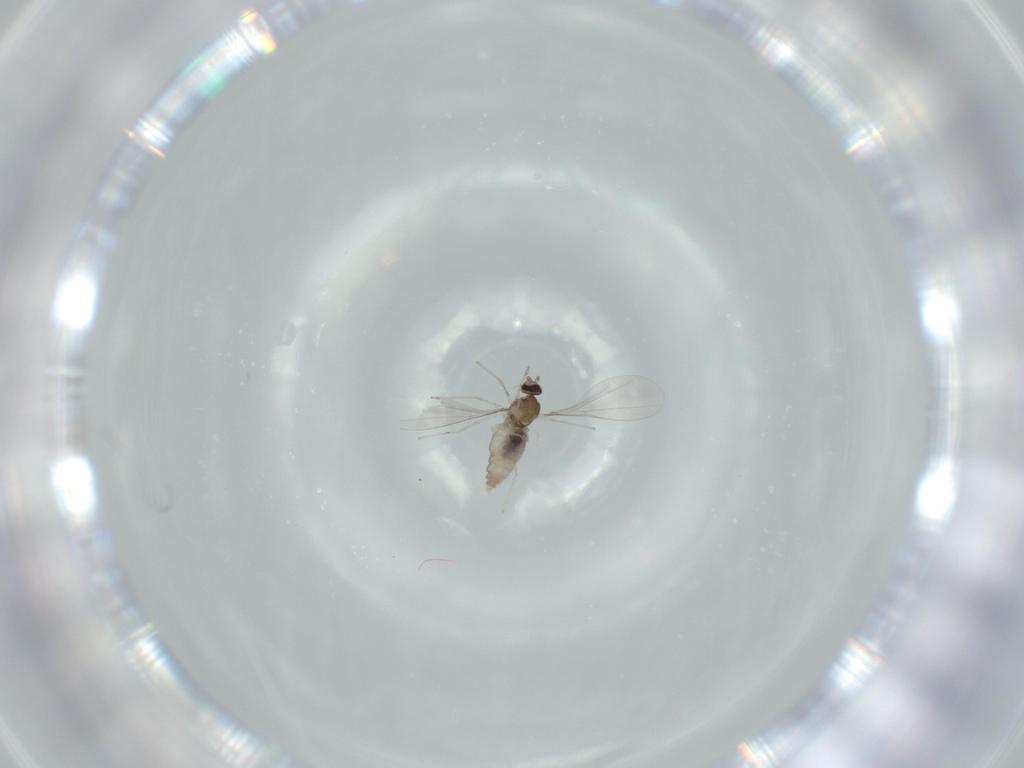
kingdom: Animalia
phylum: Arthropoda
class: Insecta
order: Diptera
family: Cecidomyiidae
